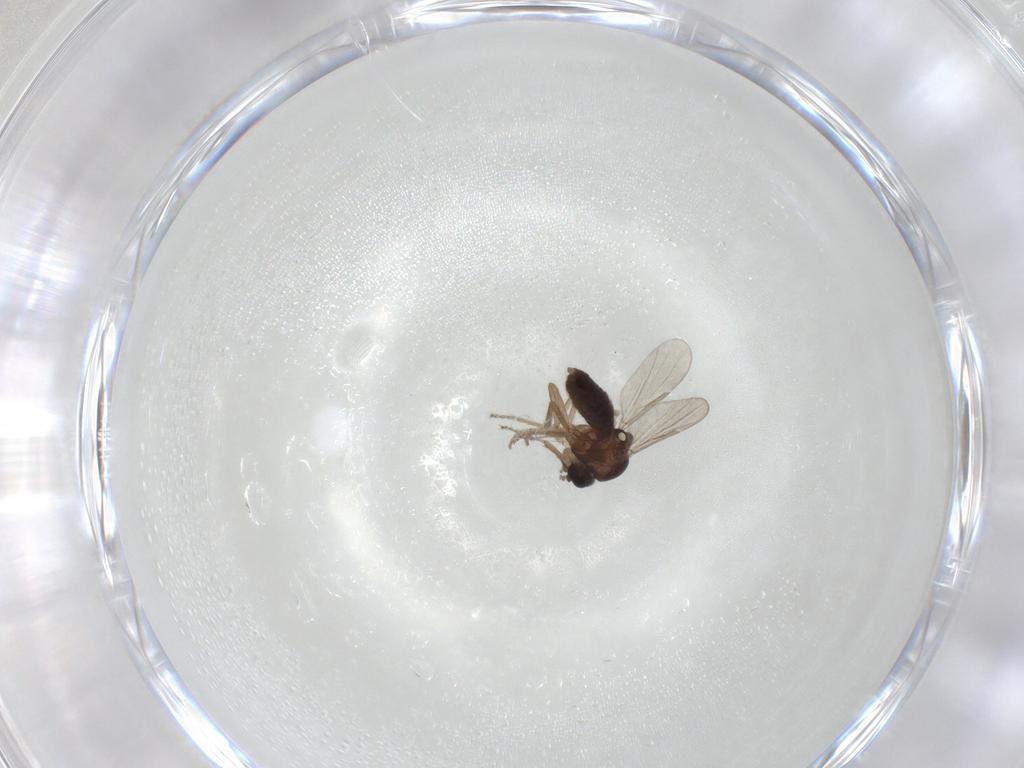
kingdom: Animalia
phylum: Arthropoda
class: Insecta
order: Diptera
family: Ceratopogonidae
